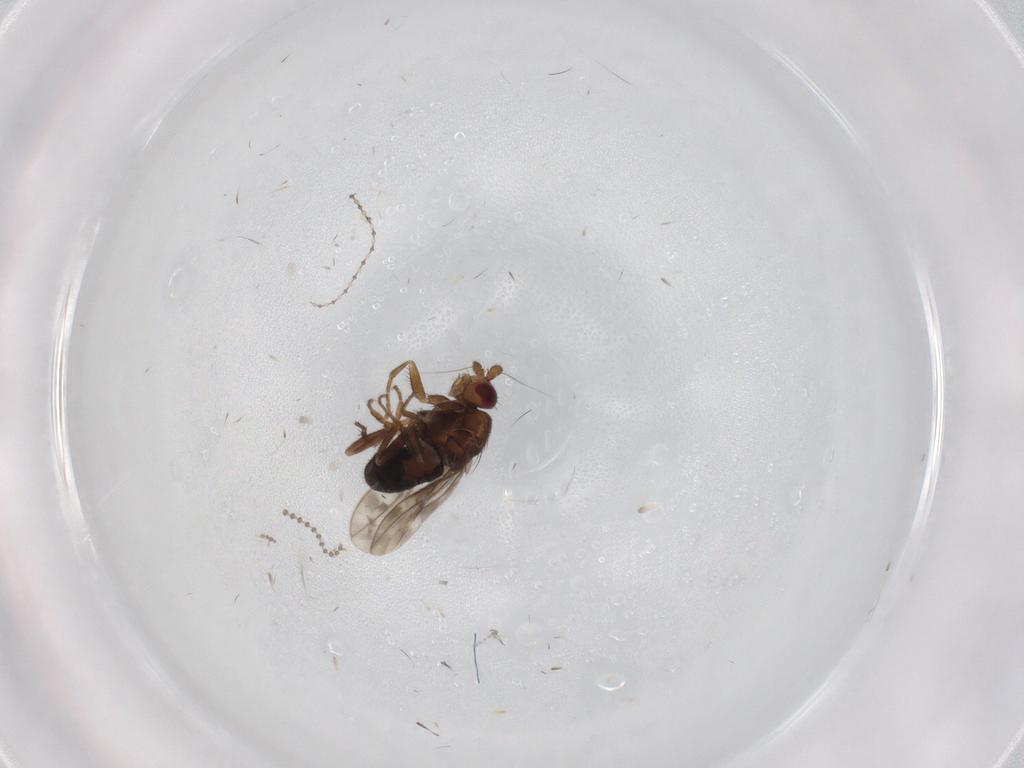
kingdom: Animalia
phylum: Arthropoda
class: Insecta
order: Diptera
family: Sphaeroceridae
